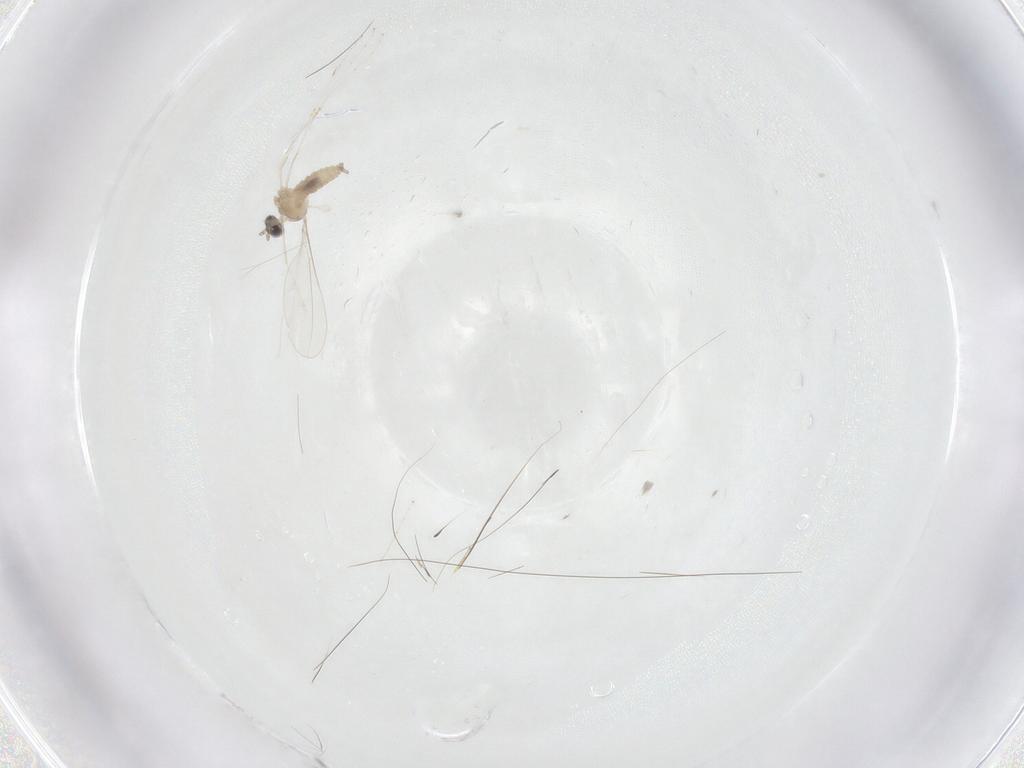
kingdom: Animalia
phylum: Arthropoda
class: Insecta
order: Diptera
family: Cecidomyiidae
